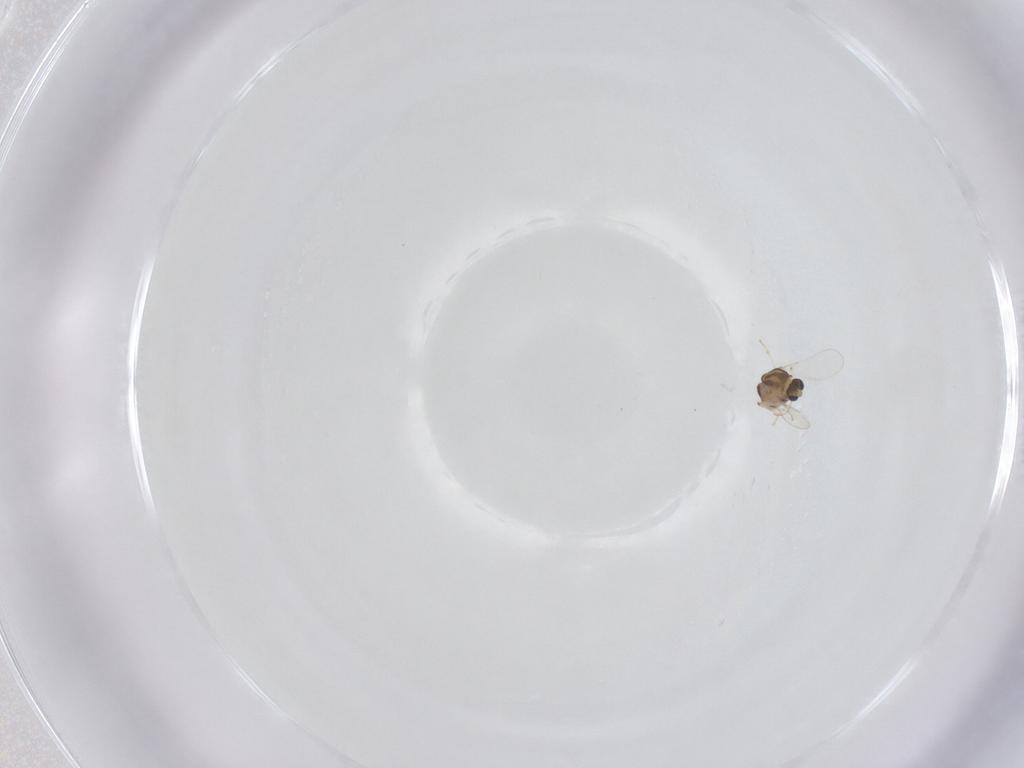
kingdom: Animalia
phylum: Arthropoda
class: Insecta
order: Diptera
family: Chironomidae
